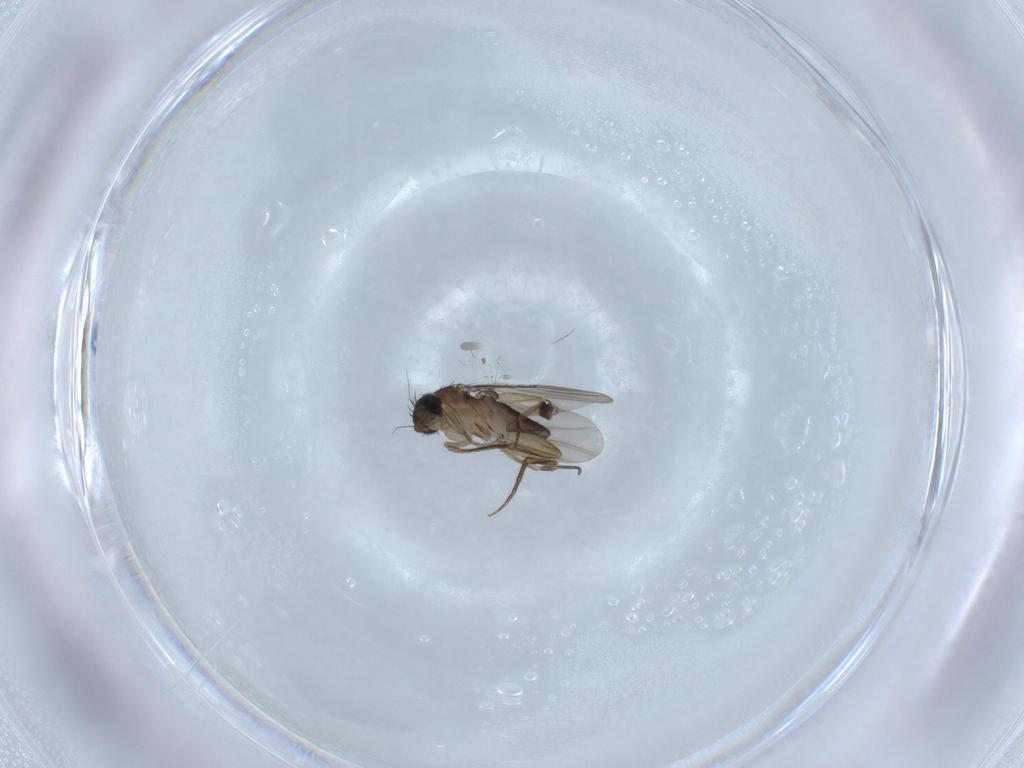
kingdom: Animalia
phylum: Arthropoda
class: Insecta
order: Diptera
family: Phoridae
